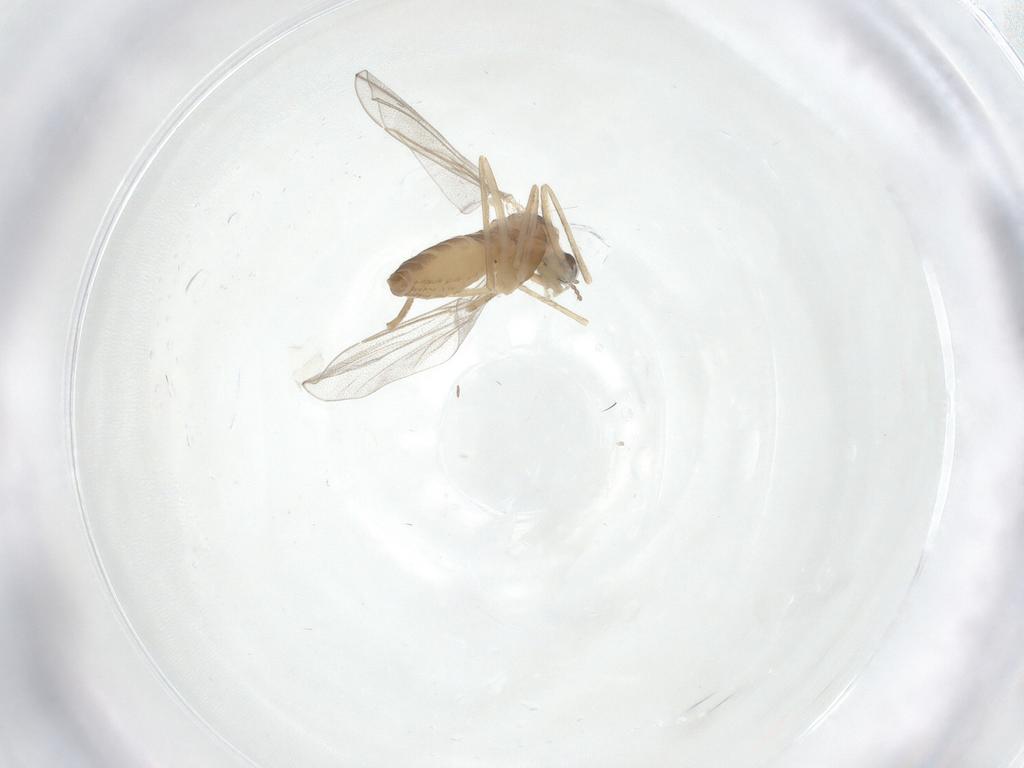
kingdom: Animalia
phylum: Arthropoda
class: Insecta
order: Diptera
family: Cecidomyiidae
